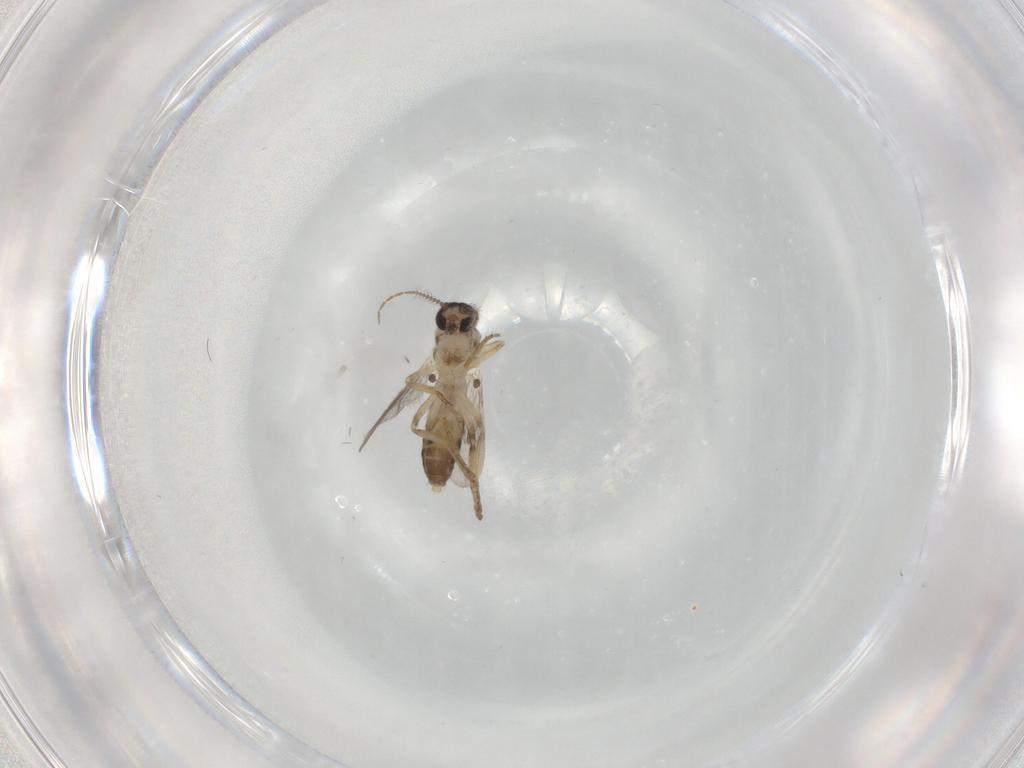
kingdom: Animalia
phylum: Arthropoda
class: Insecta
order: Diptera
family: Ceratopogonidae
